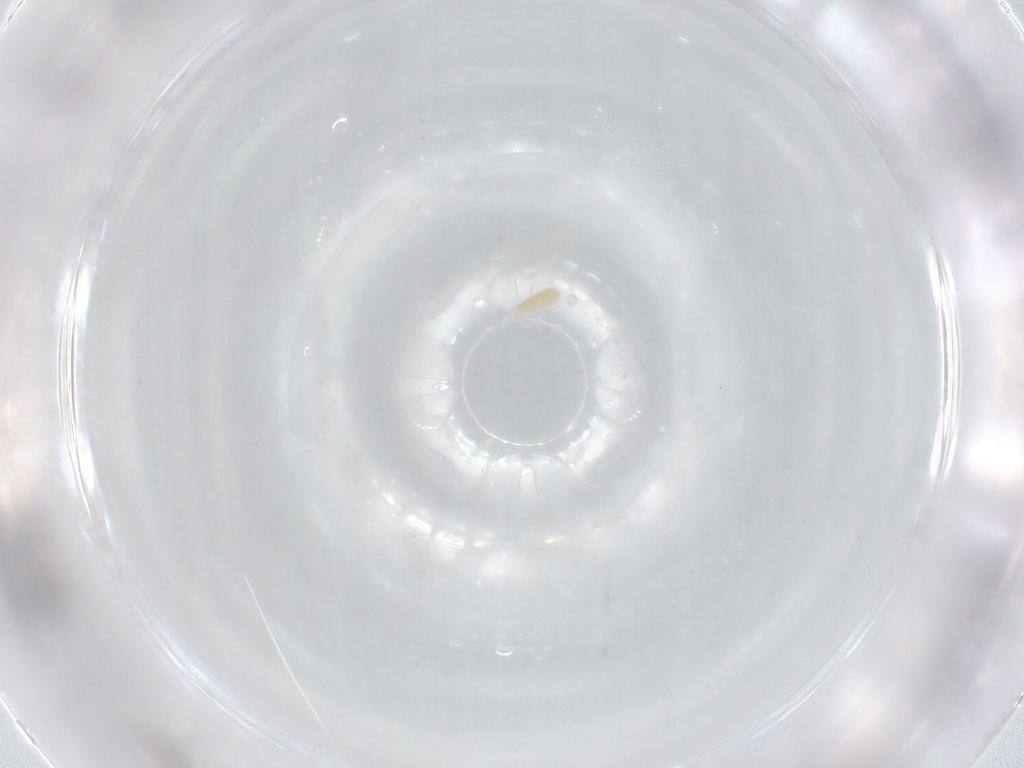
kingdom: Animalia
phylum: Arthropoda
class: Arachnida
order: Trombidiformes
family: Eupodidae
